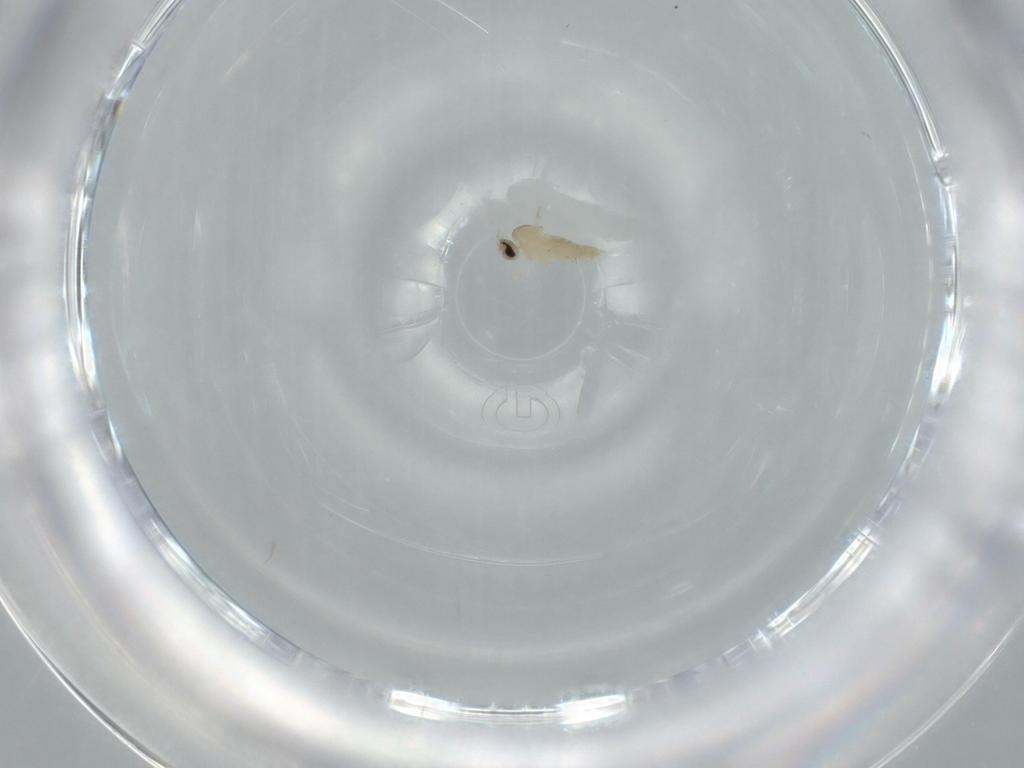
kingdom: Animalia
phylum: Arthropoda
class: Insecta
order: Diptera
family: Cecidomyiidae
